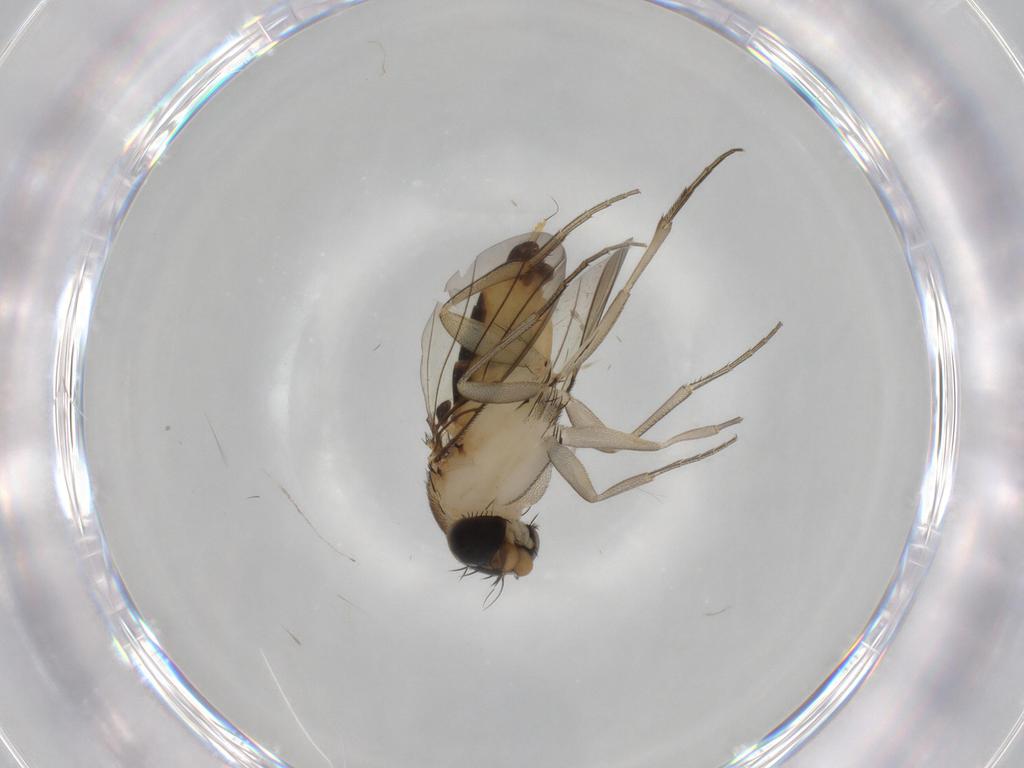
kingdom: Animalia
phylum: Arthropoda
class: Insecta
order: Diptera
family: Phoridae
